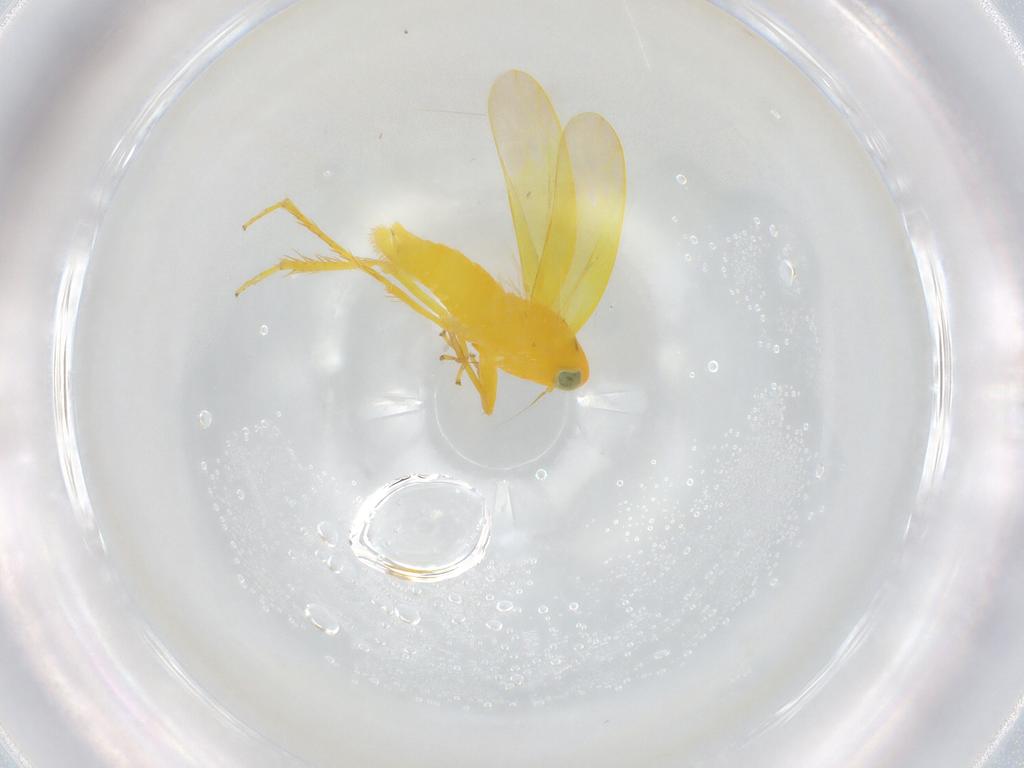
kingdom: Animalia
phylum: Arthropoda
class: Insecta
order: Hemiptera
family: Cicadellidae
